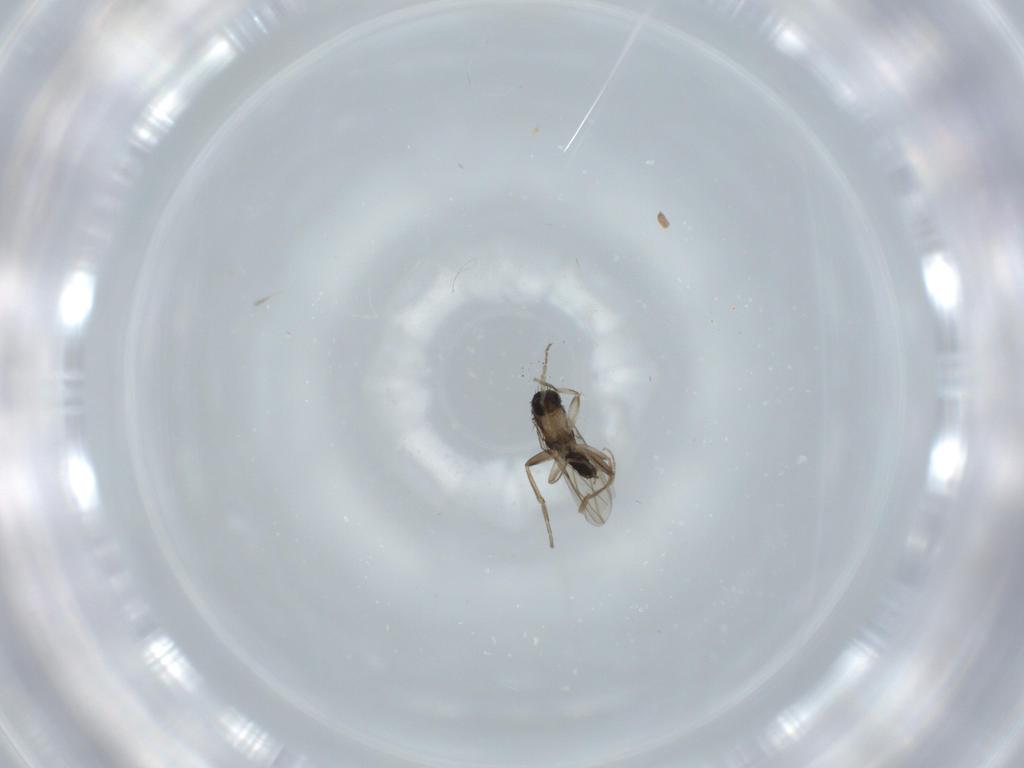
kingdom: Animalia
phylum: Arthropoda
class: Insecta
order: Diptera
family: Phoridae
